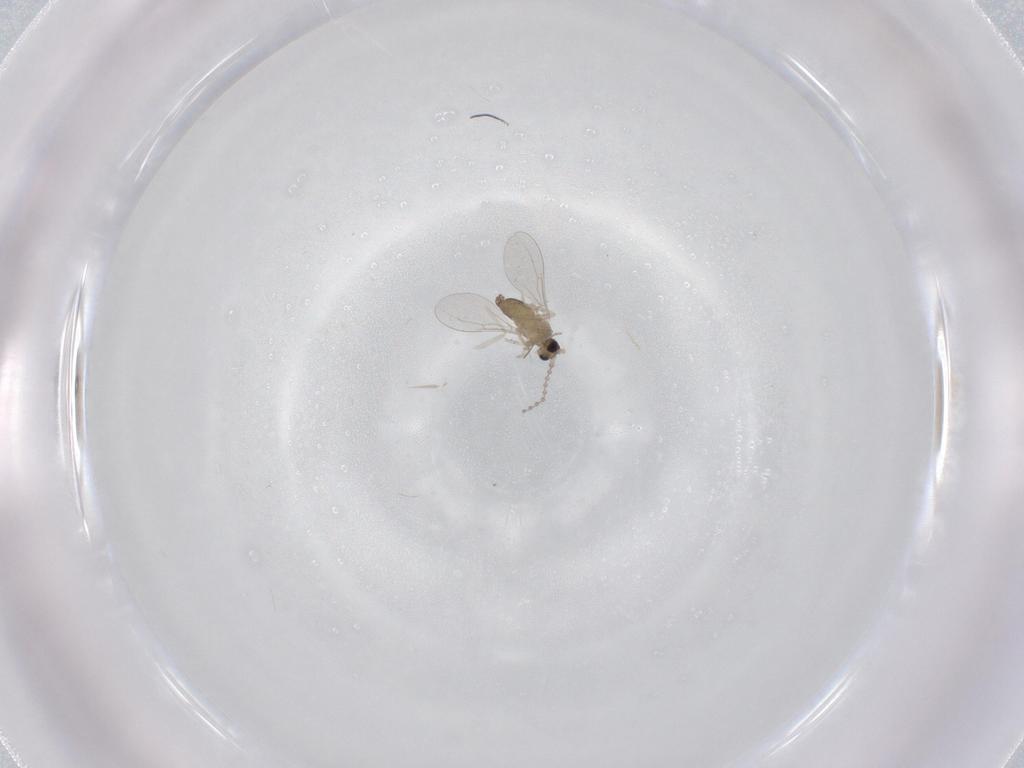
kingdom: Animalia
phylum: Arthropoda
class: Insecta
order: Diptera
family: Cecidomyiidae
